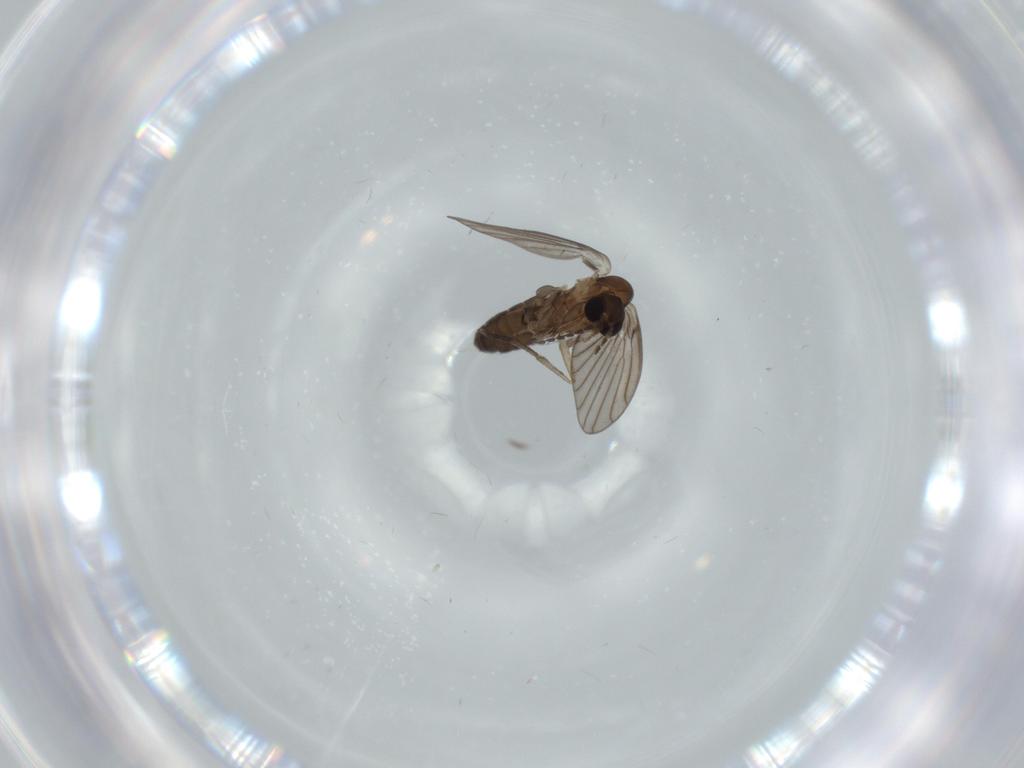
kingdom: Animalia
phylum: Arthropoda
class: Insecta
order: Diptera
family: Psychodidae
